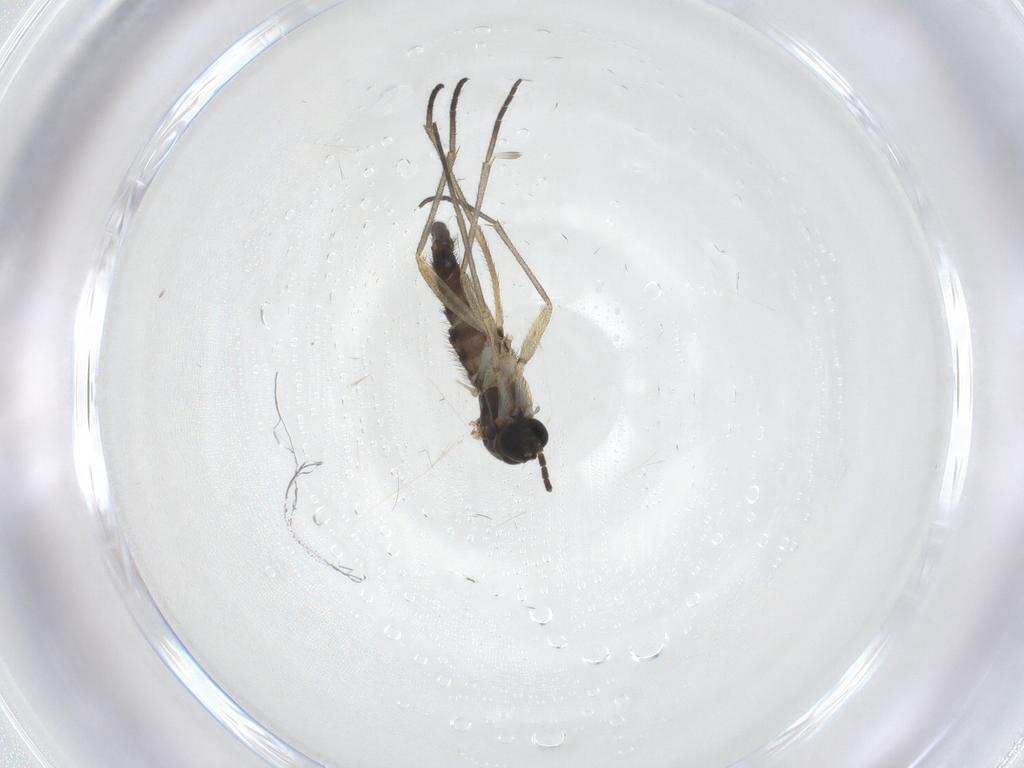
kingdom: Animalia
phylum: Arthropoda
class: Insecta
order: Diptera
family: Sciaridae
